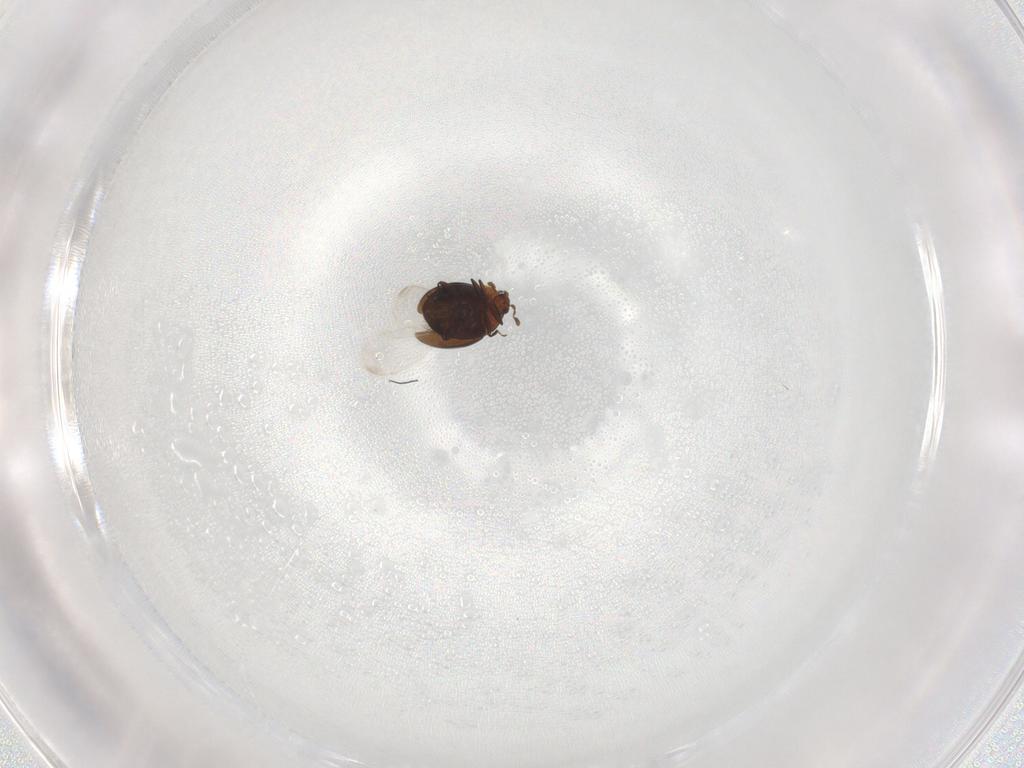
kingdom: Animalia
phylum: Arthropoda
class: Insecta
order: Coleoptera
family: Corylophidae
